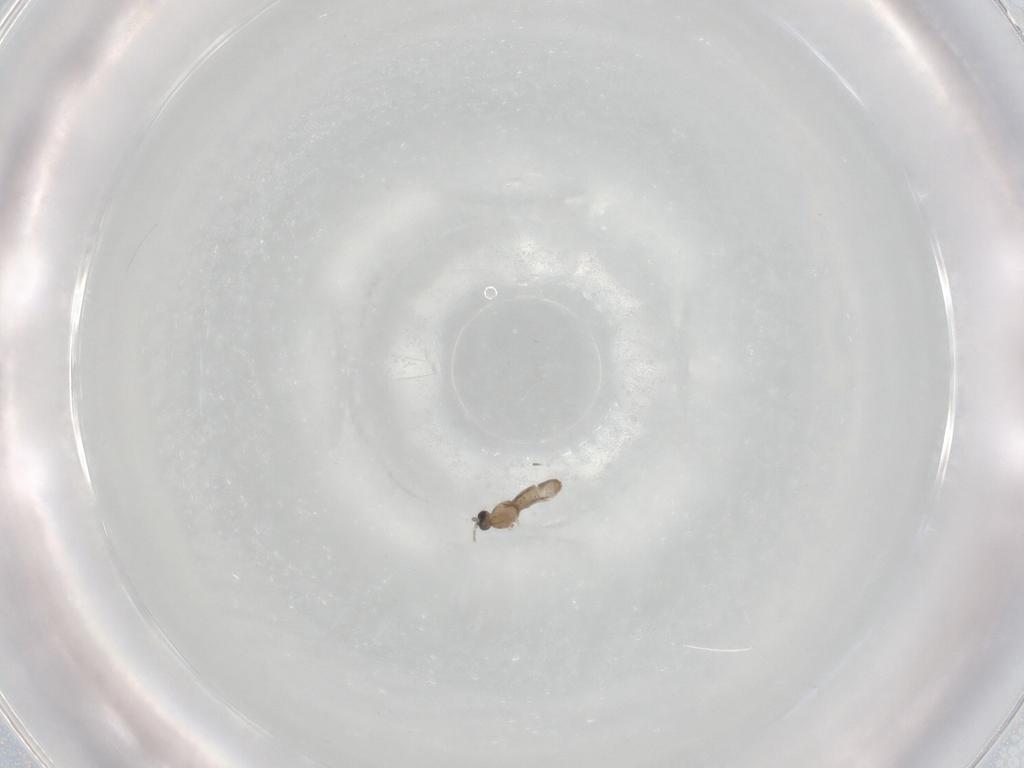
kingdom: Animalia
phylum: Arthropoda
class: Insecta
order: Diptera
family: Sciaridae
